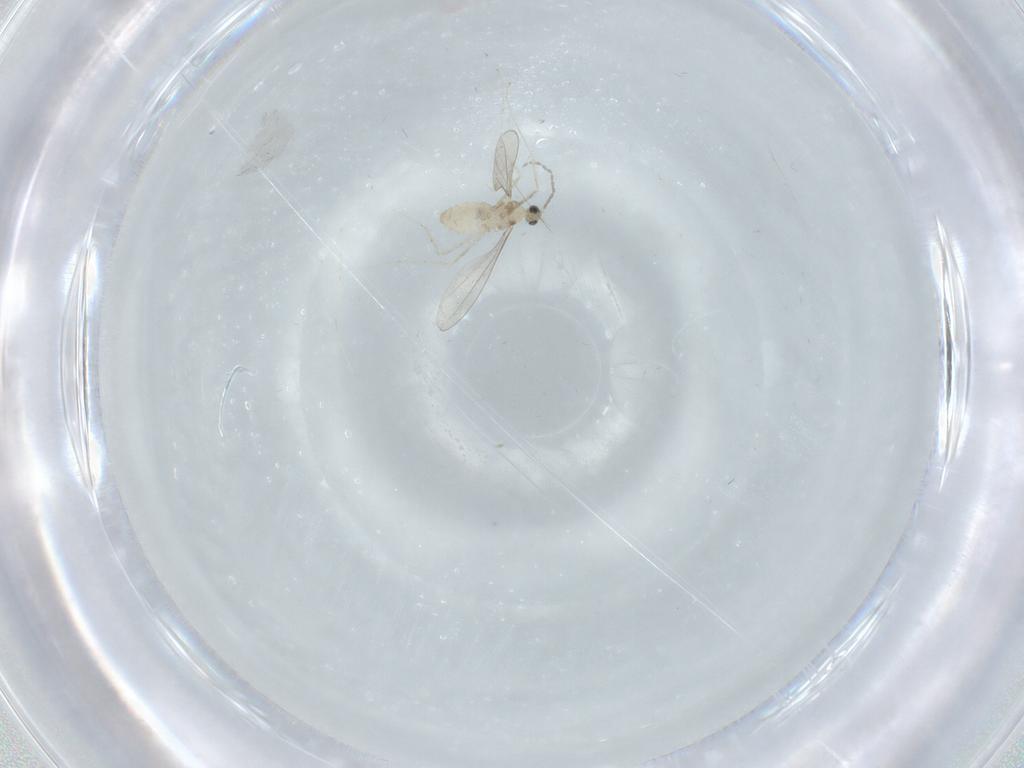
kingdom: Animalia
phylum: Arthropoda
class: Insecta
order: Diptera
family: Cecidomyiidae
